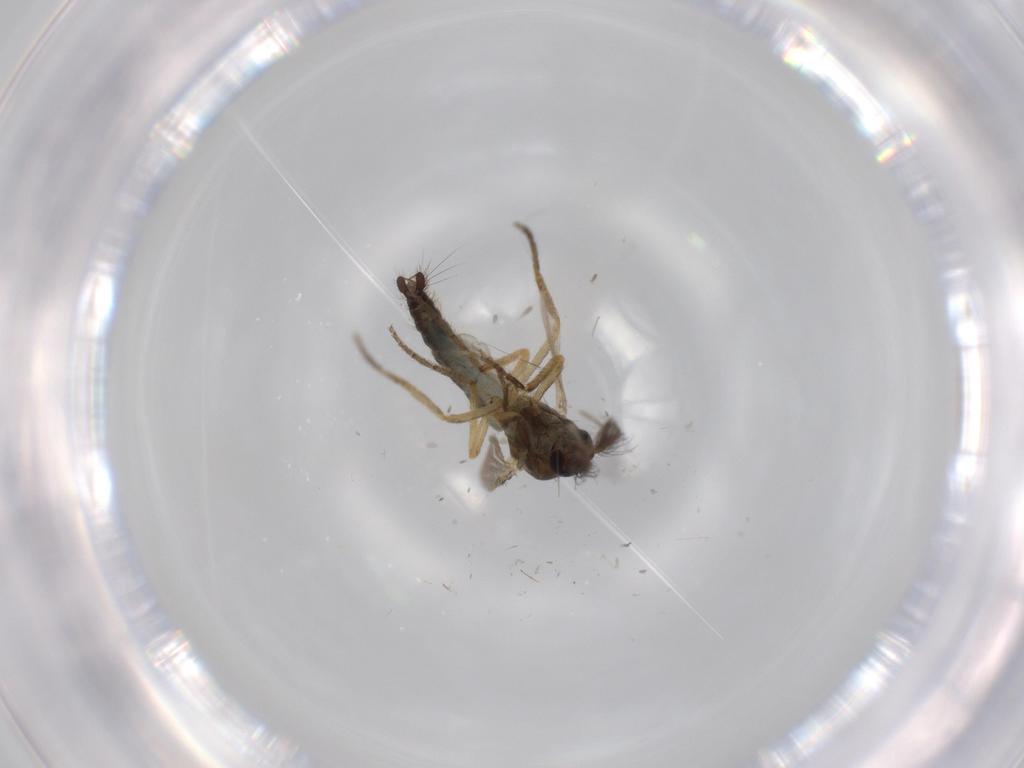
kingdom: Animalia
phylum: Arthropoda
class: Insecta
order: Diptera
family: Ceratopogonidae
